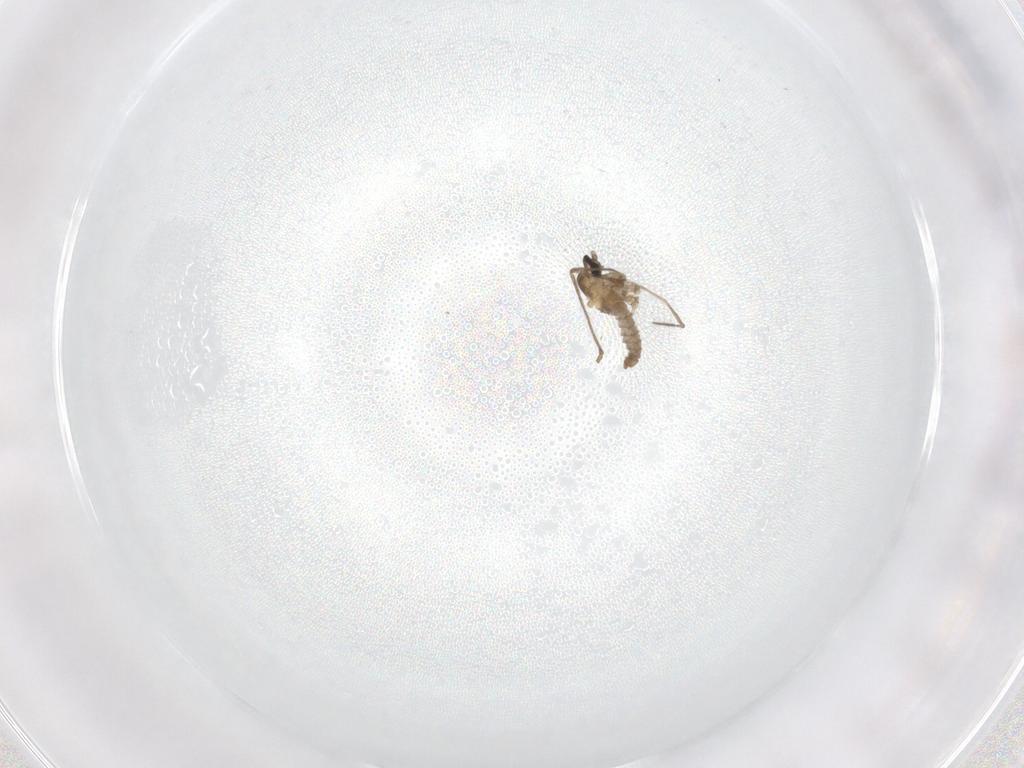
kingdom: Animalia
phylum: Arthropoda
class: Insecta
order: Diptera
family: Cecidomyiidae
